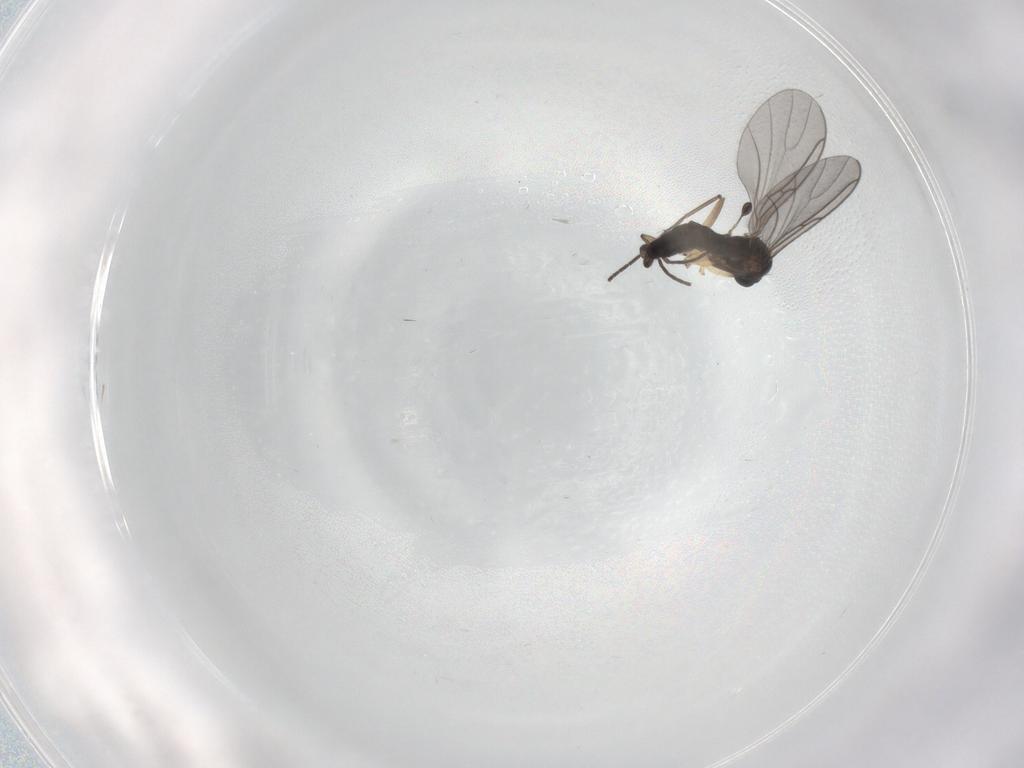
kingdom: Animalia
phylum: Arthropoda
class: Insecta
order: Diptera
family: Sciaridae
